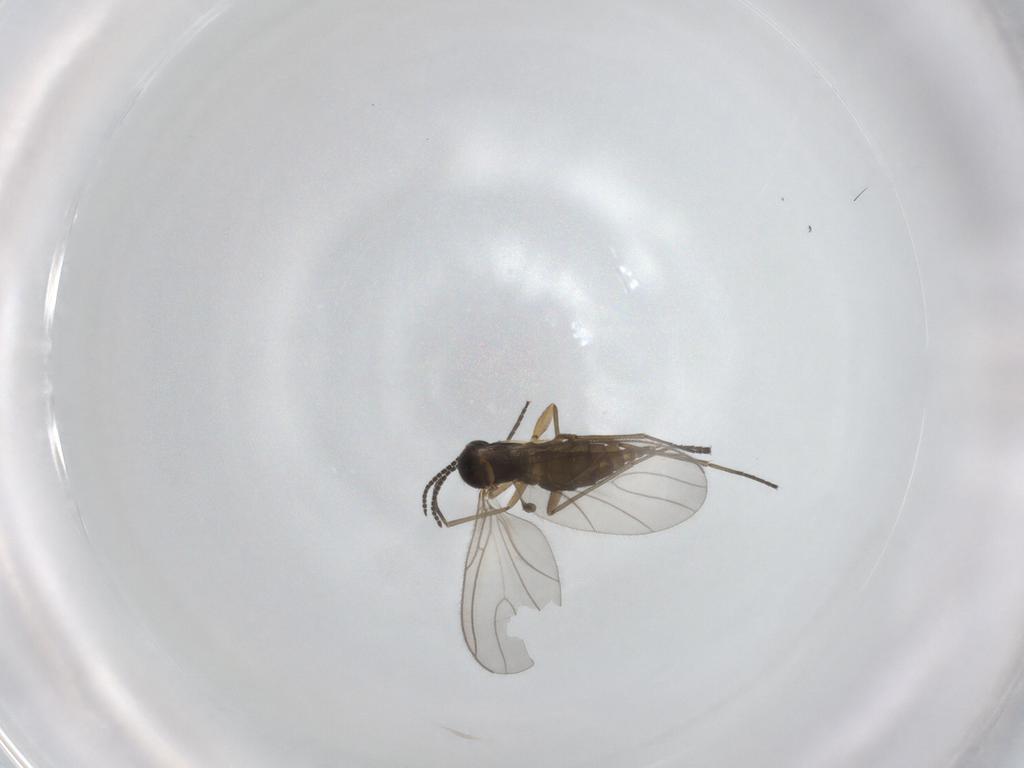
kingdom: Animalia
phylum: Arthropoda
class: Insecta
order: Diptera
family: Sciaridae
